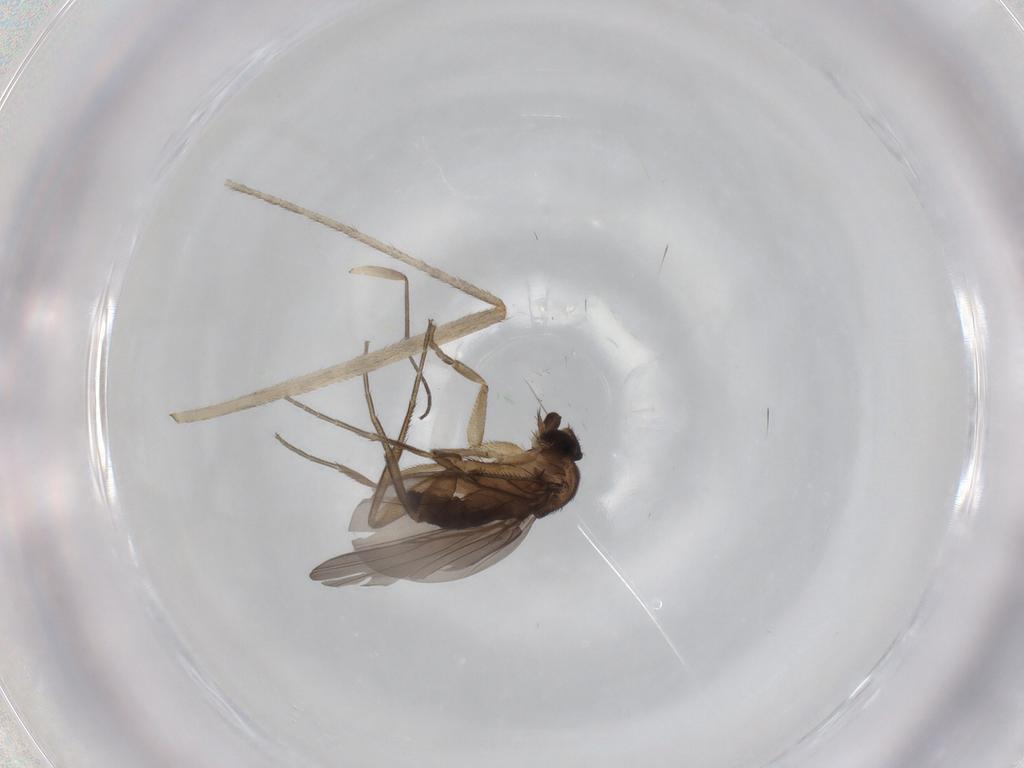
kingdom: Animalia
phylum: Arthropoda
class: Insecta
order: Diptera
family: Phoridae
